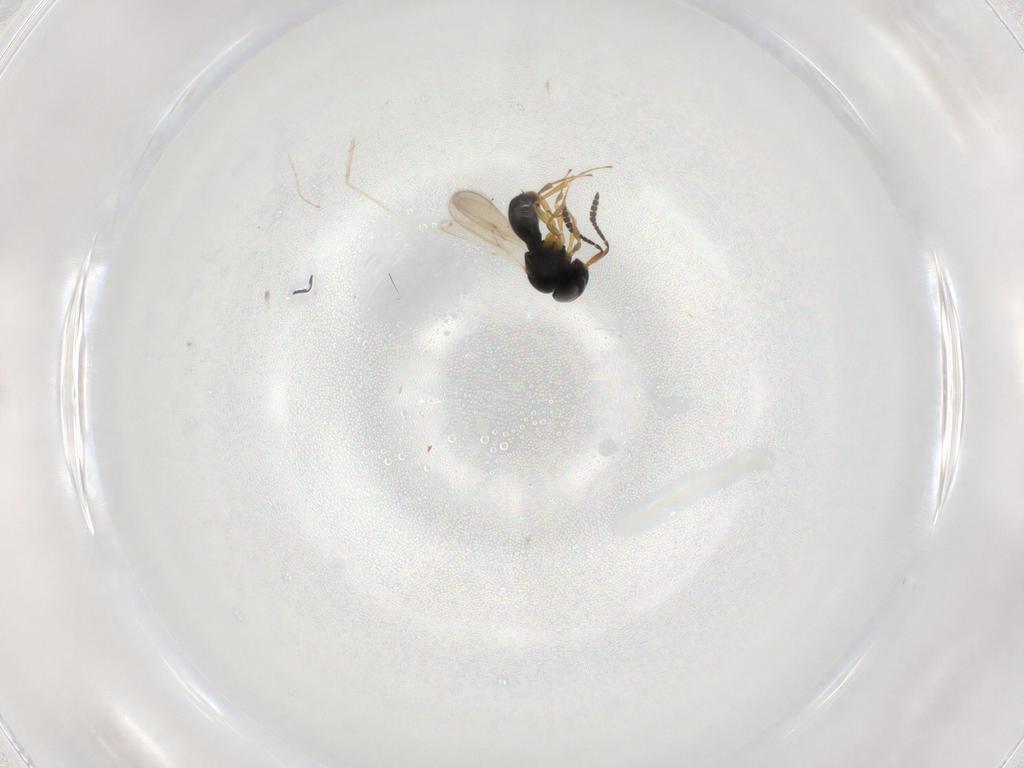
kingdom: Animalia
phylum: Arthropoda
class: Insecta
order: Hymenoptera
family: Scelionidae
